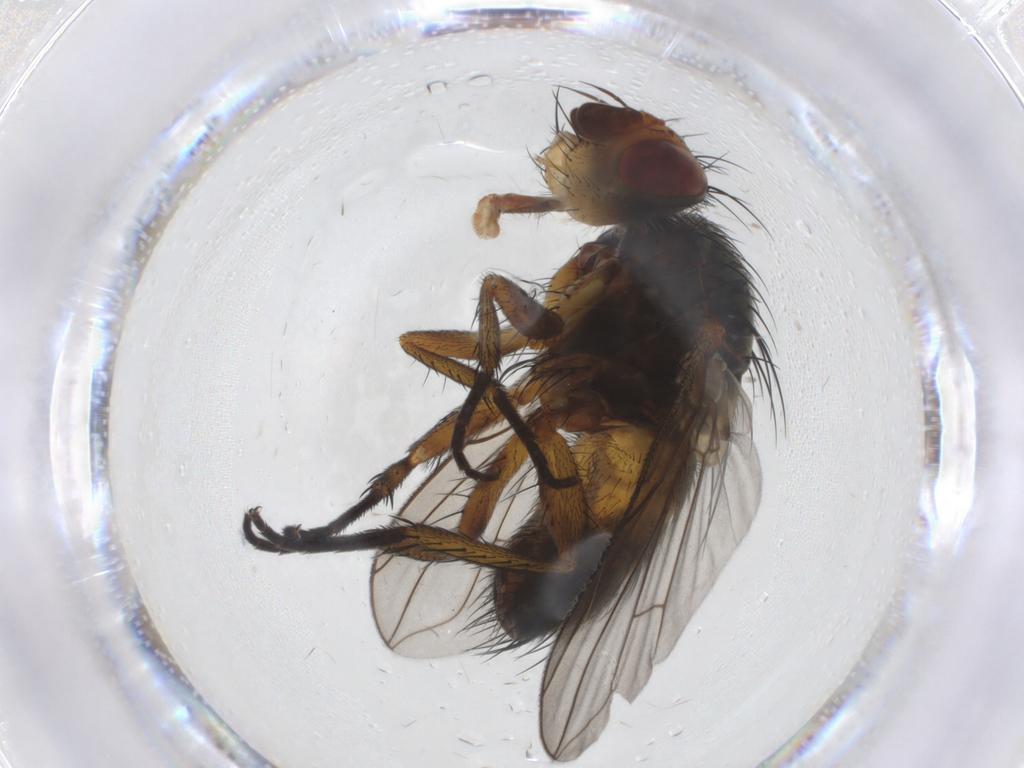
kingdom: Animalia
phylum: Arthropoda
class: Insecta
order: Diptera
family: Tachinidae
